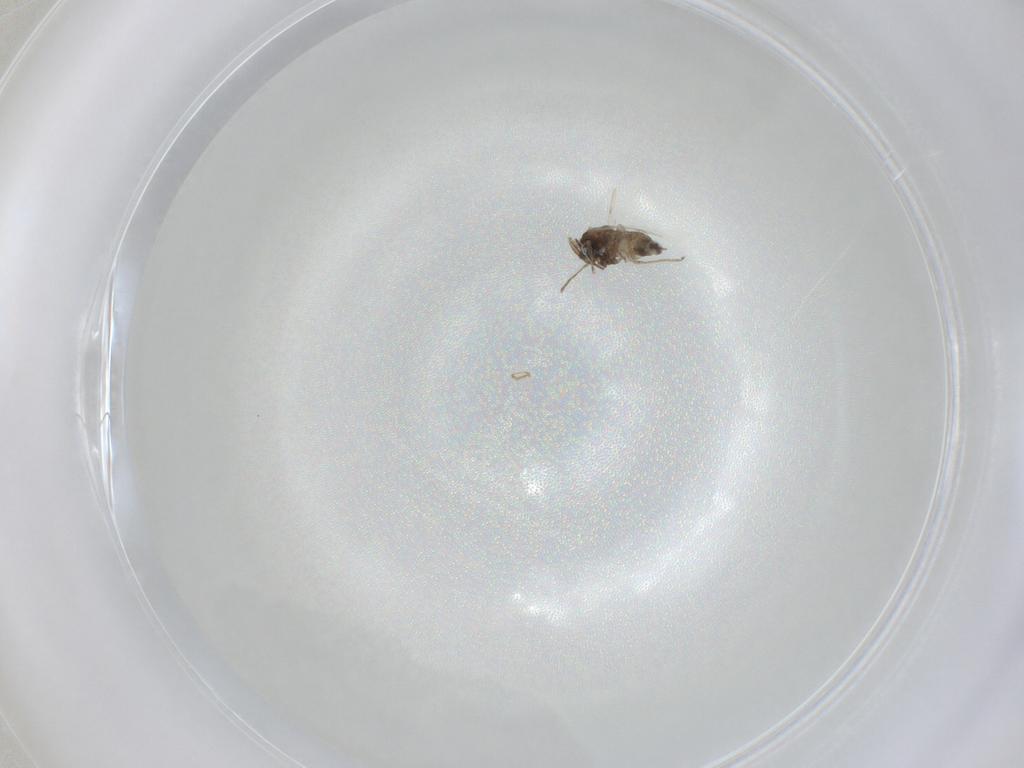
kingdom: Animalia
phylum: Arthropoda
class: Insecta
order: Diptera
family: Cecidomyiidae
